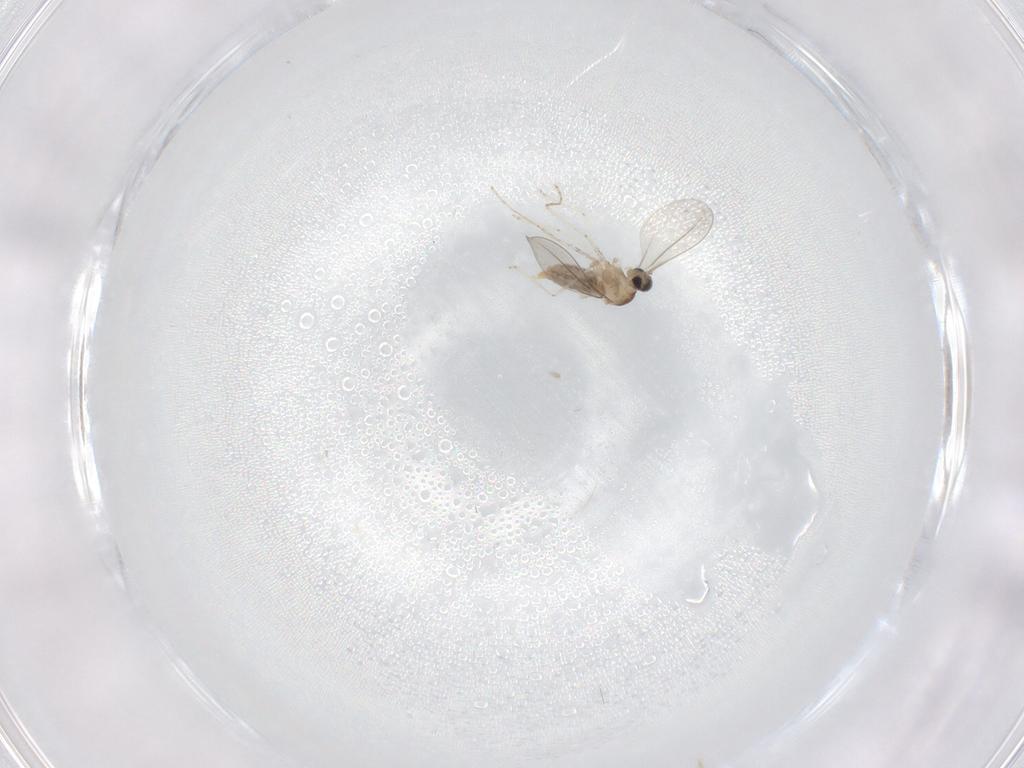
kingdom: Animalia
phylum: Arthropoda
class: Insecta
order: Diptera
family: Cecidomyiidae
